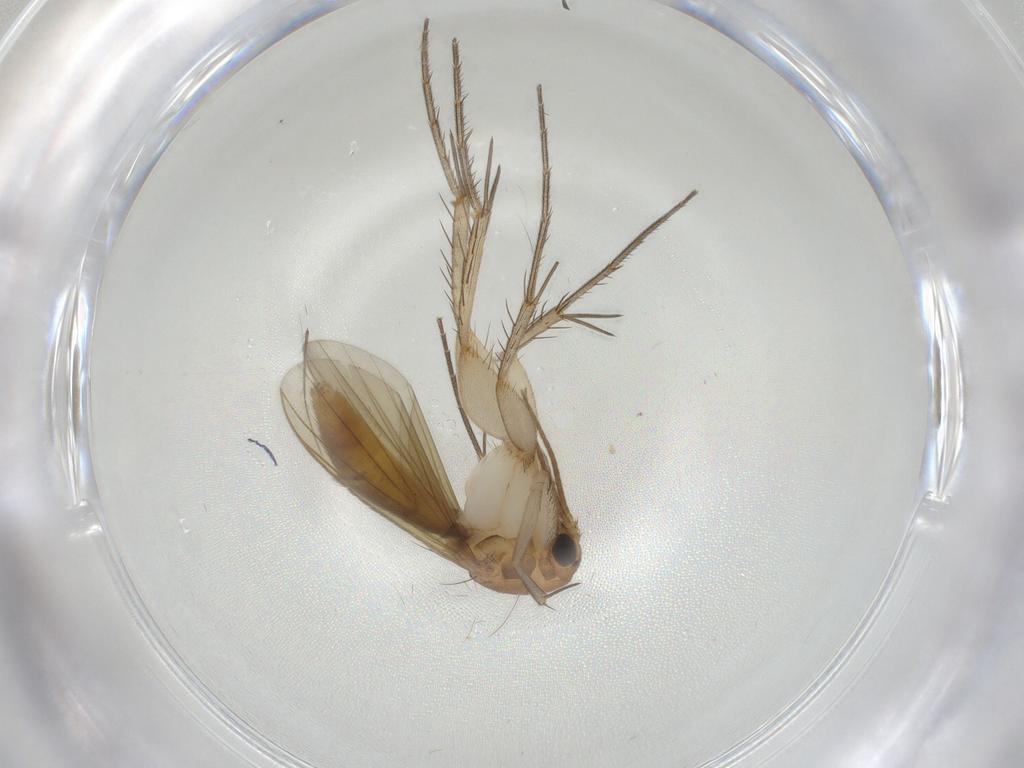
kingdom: Animalia
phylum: Arthropoda
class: Insecta
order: Diptera
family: Mycetophilidae
